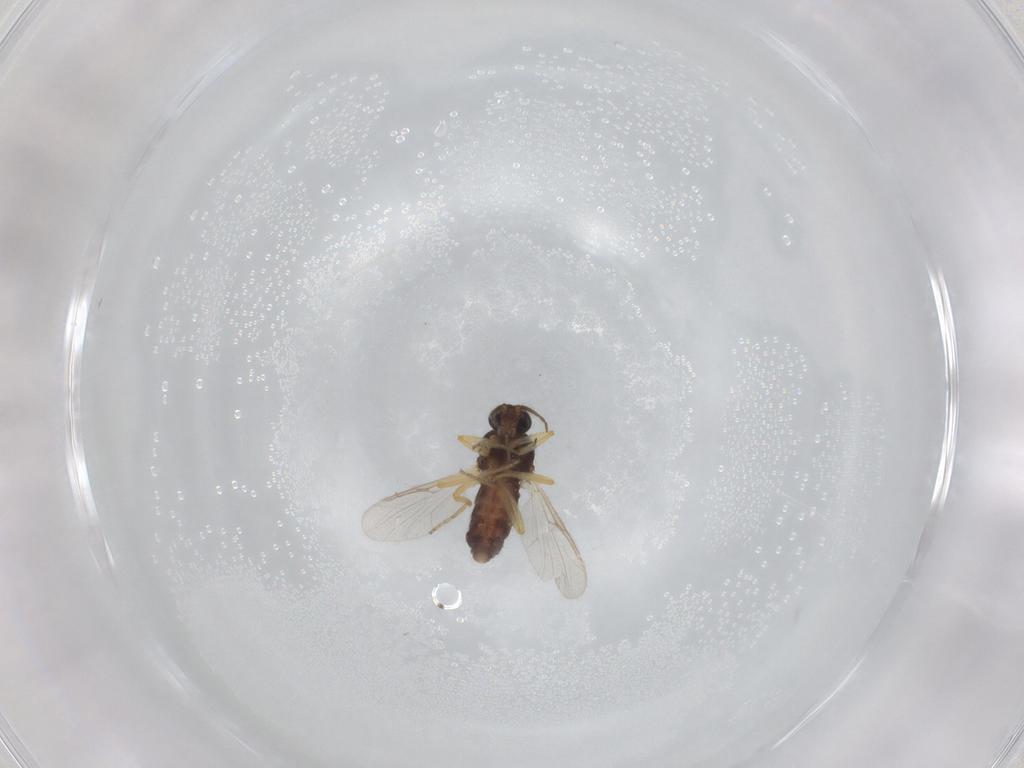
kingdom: Animalia
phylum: Arthropoda
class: Insecta
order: Diptera
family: Ceratopogonidae
